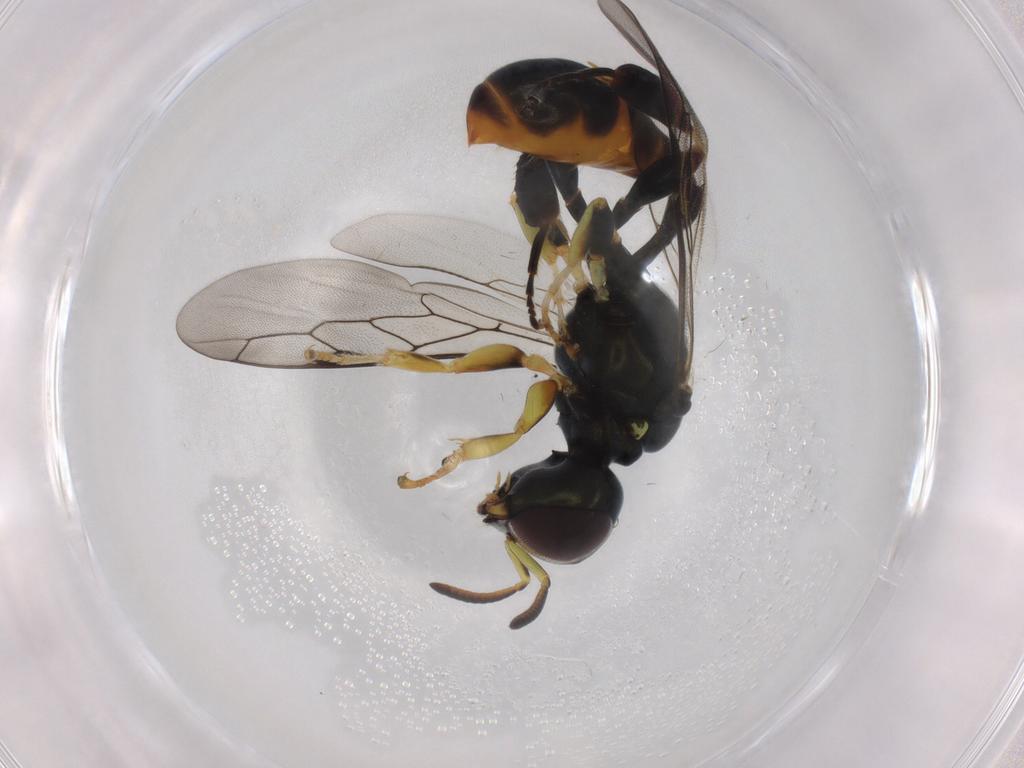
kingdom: Animalia
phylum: Arthropoda
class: Insecta
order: Hymenoptera
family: Crabronidae
